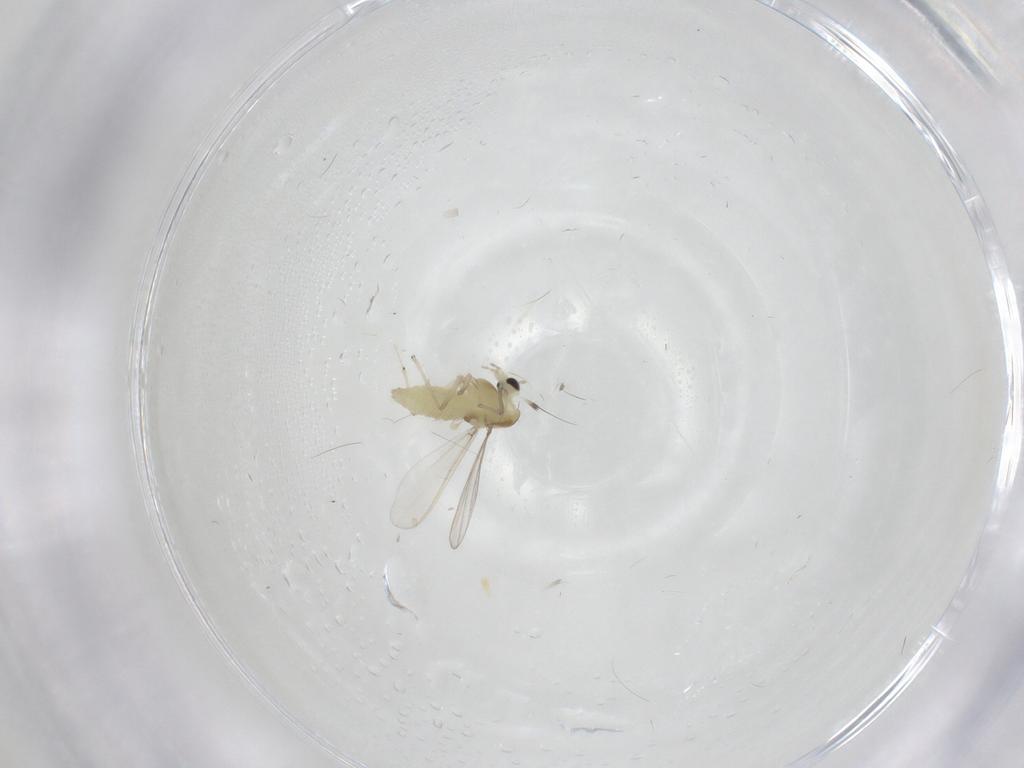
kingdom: Animalia
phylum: Arthropoda
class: Insecta
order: Diptera
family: Chironomidae
